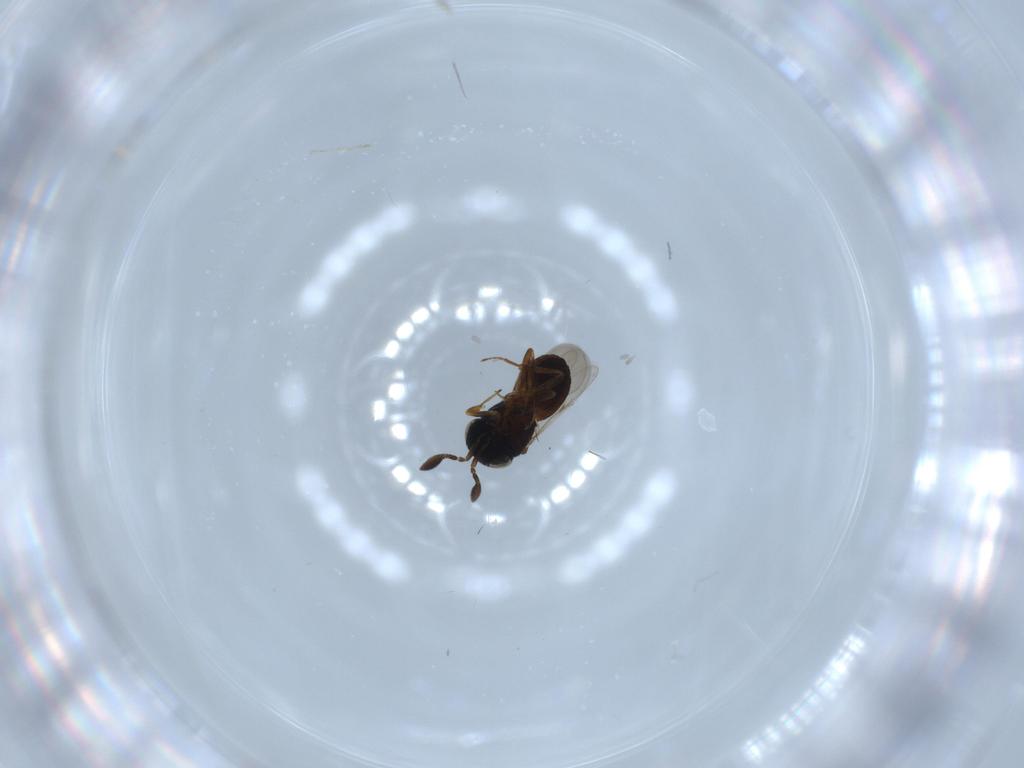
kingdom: Animalia
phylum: Arthropoda
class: Insecta
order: Hymenoptera
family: Scelionidae
